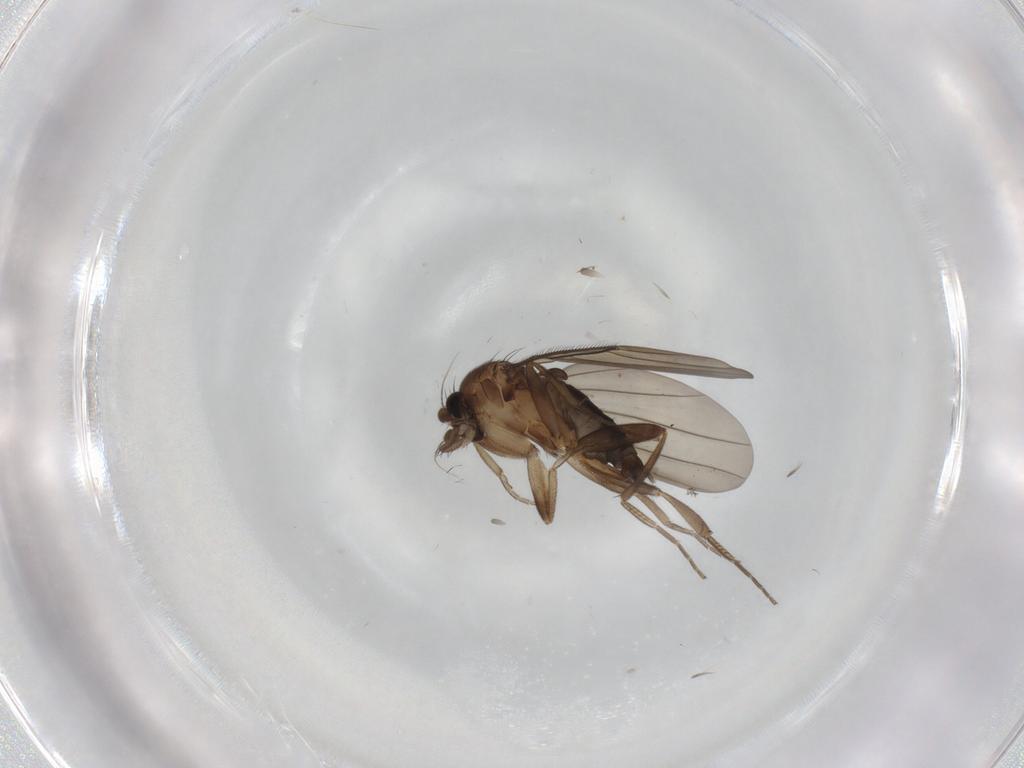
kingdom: Animalia
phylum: Arthropoda
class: Insecta
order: Diptera
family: Phoridae
